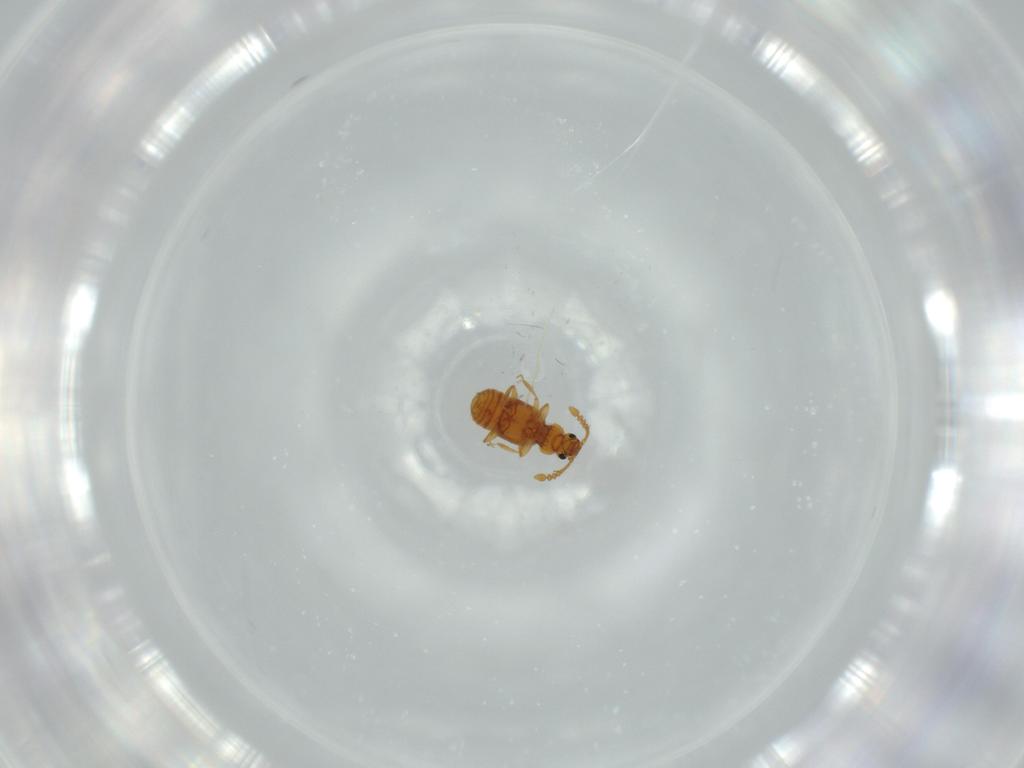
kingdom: Animalia
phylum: Arthropoda
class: Insecta
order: Coleoptera
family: Staphylinidae
